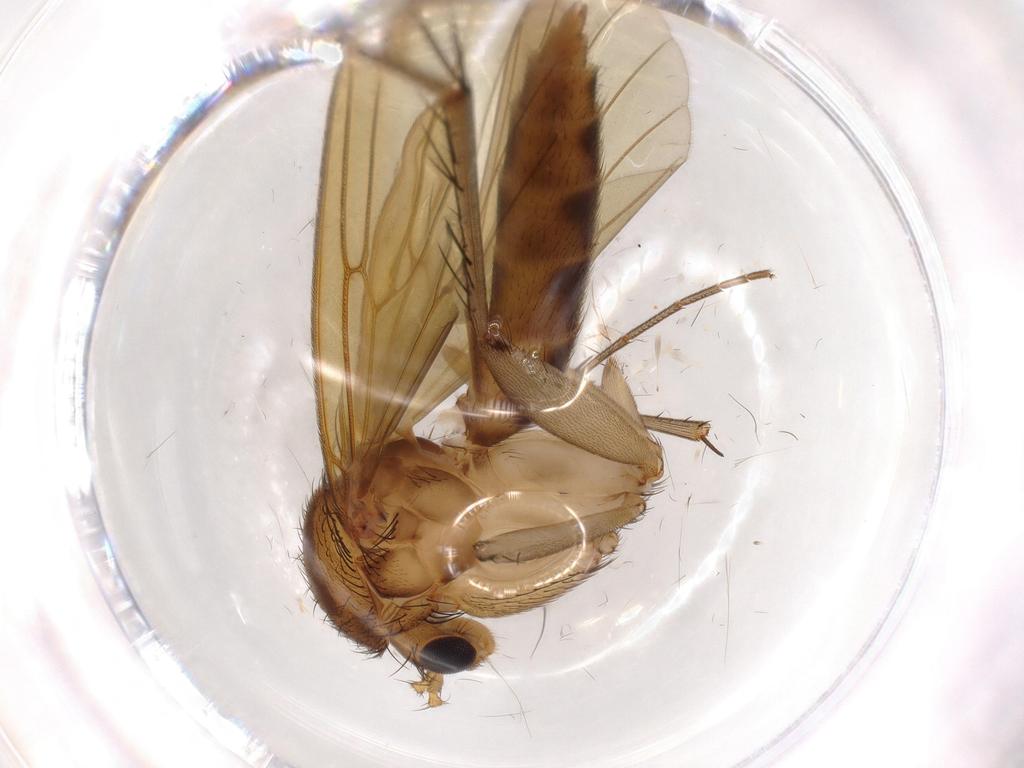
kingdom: Animalia
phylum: Arthropoda
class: Insecta
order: Diptera
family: Mycetophilidae
